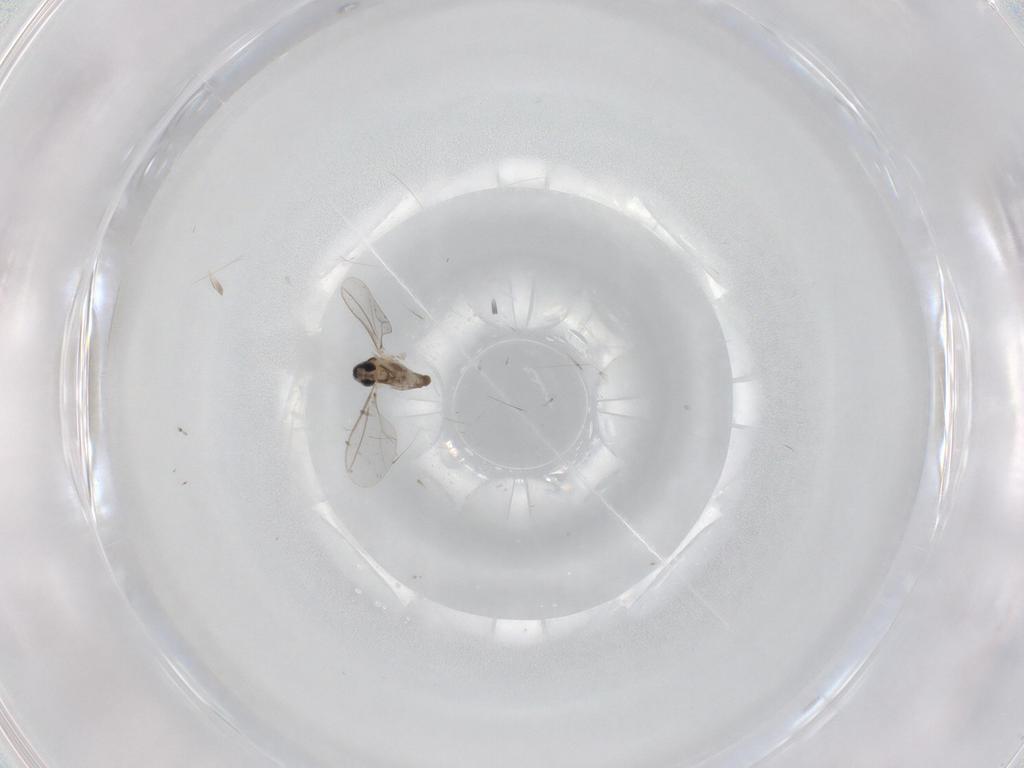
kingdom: Animalia
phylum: Arthropoda
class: Insecta
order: Diptera
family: Cecidomyiidae
